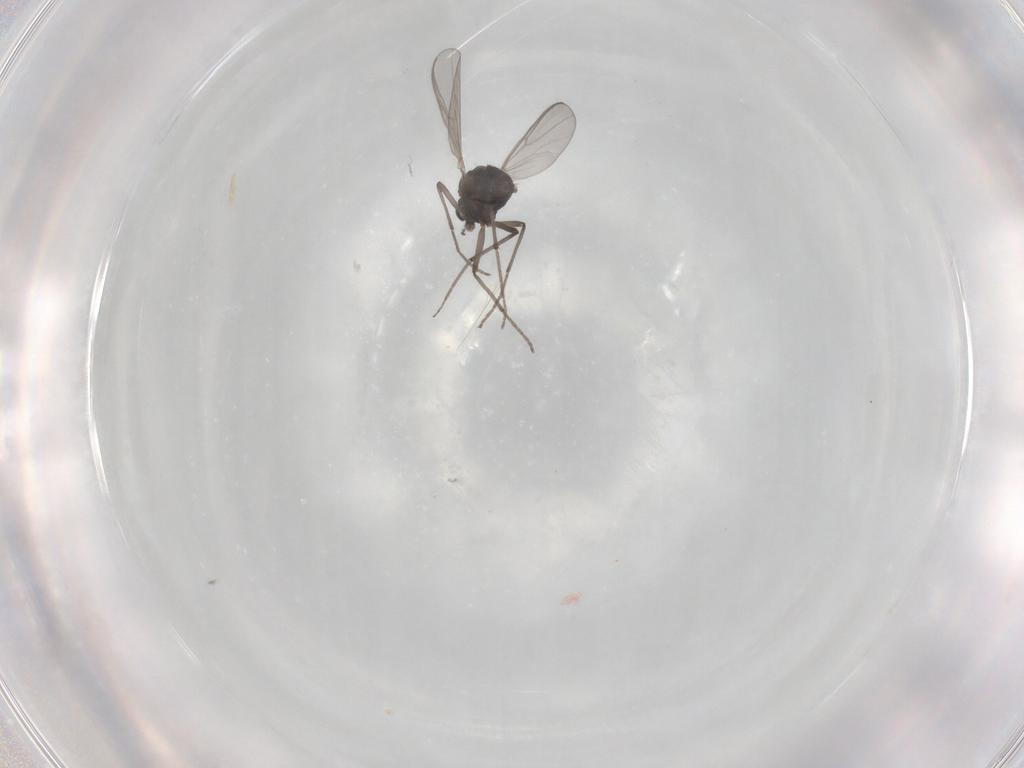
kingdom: Animalia
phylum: Arthropoda
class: Insecta
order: Diptera
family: Chironomidae
